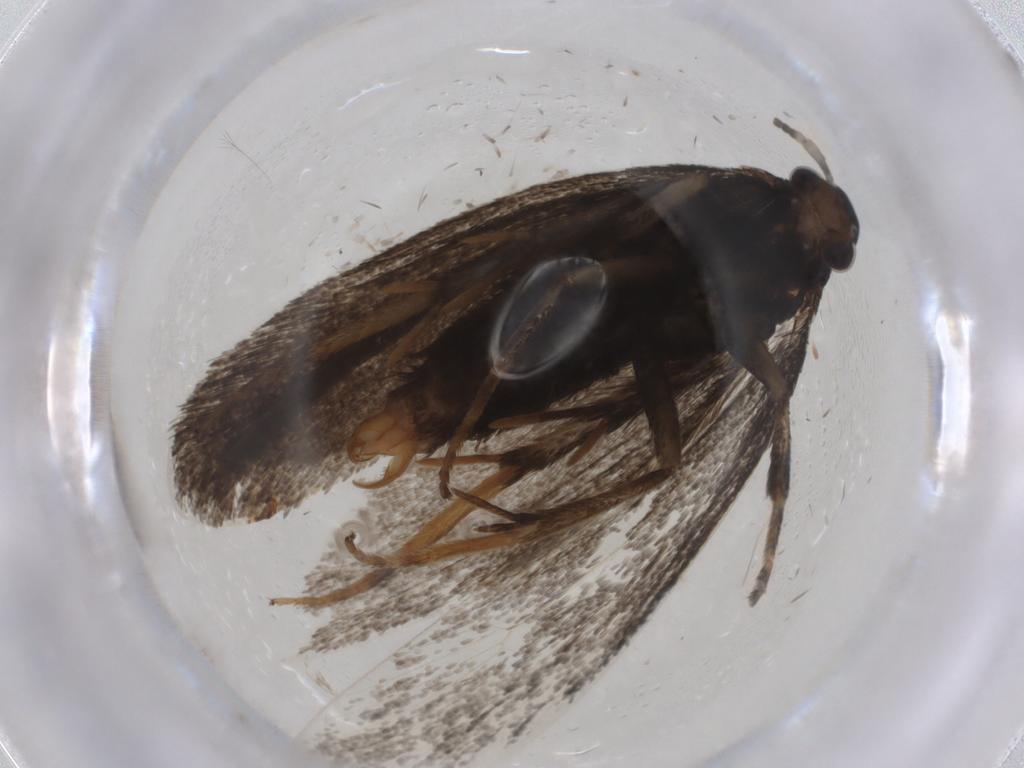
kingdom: Animalia
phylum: Arthropoda
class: Insecta
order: Lepidoptera
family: Lecithoceridae
